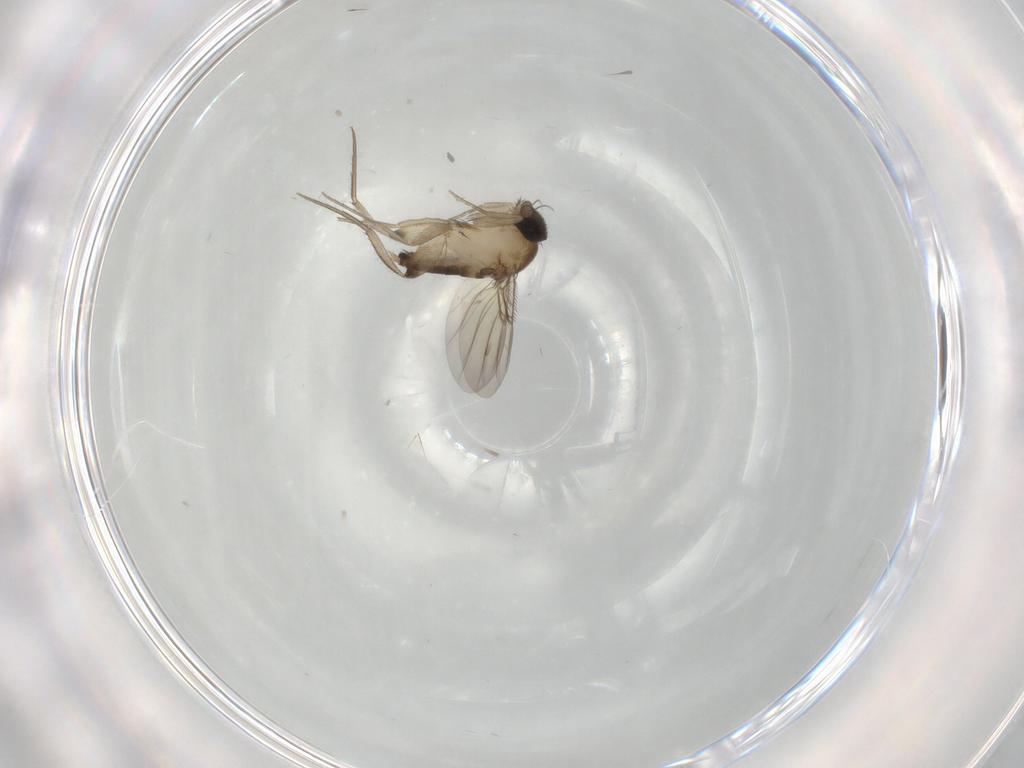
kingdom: Animalia
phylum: Arthropoda
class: Insecta
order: Diptera
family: Phoridae
